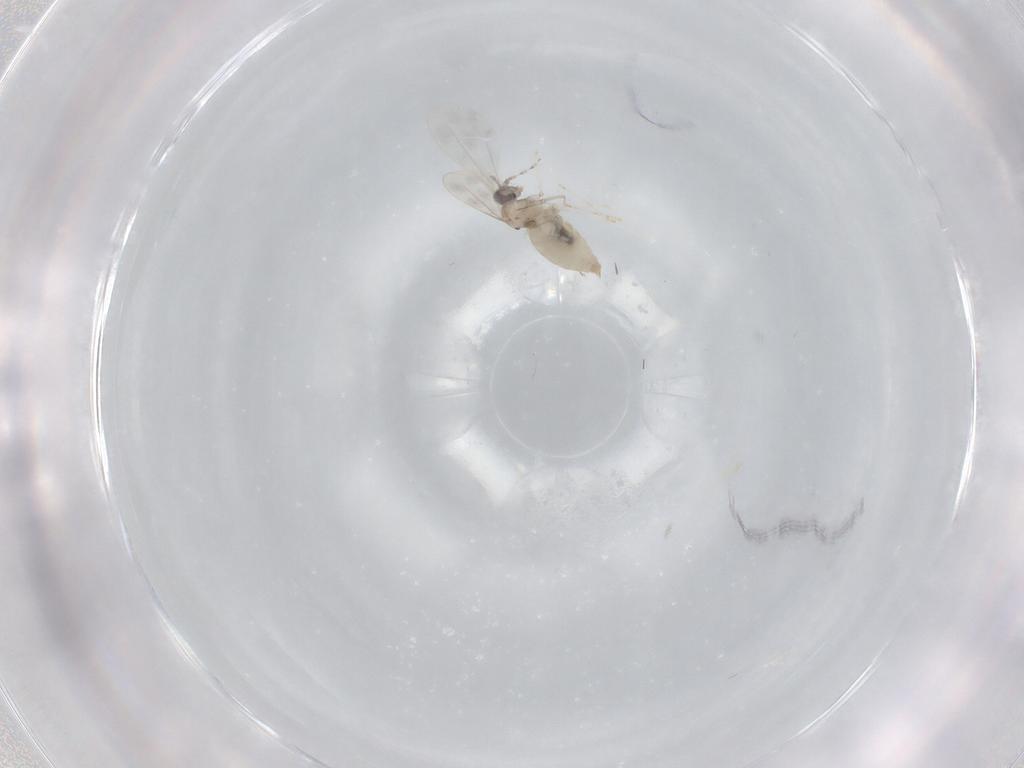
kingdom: Animalia
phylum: Arthropoda
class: Insecta
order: Diptera
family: Cecidomyiidae
